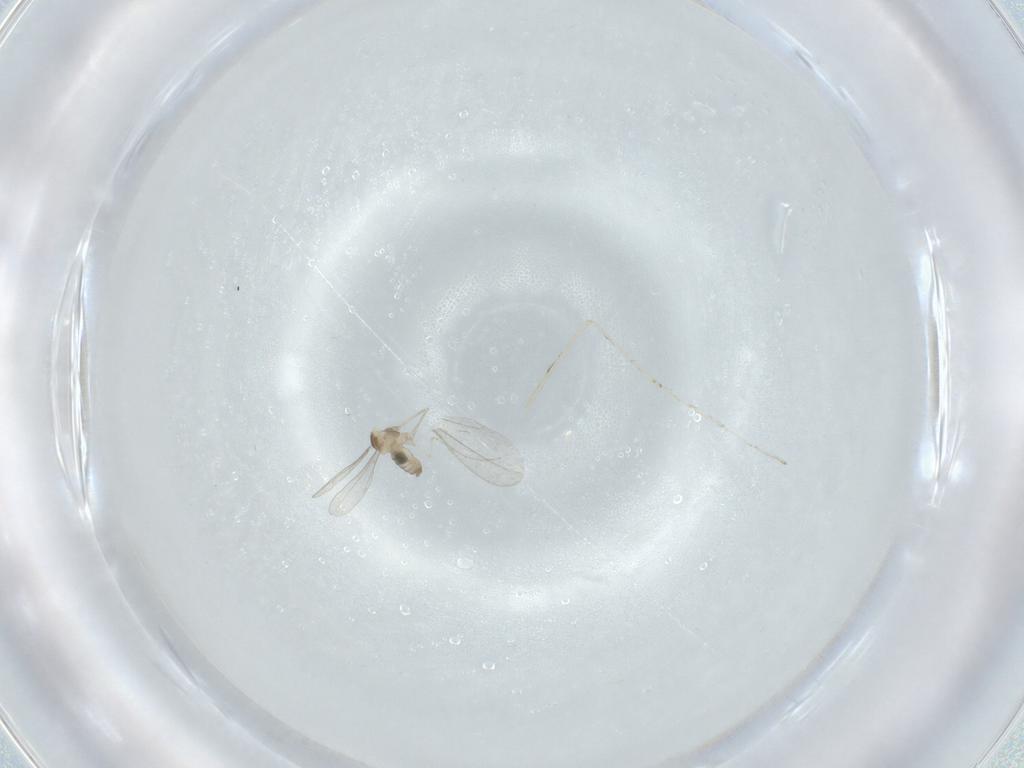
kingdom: Animalia
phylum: Arthropoda
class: Insecta
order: Diptera
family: Cecidomyiidae
